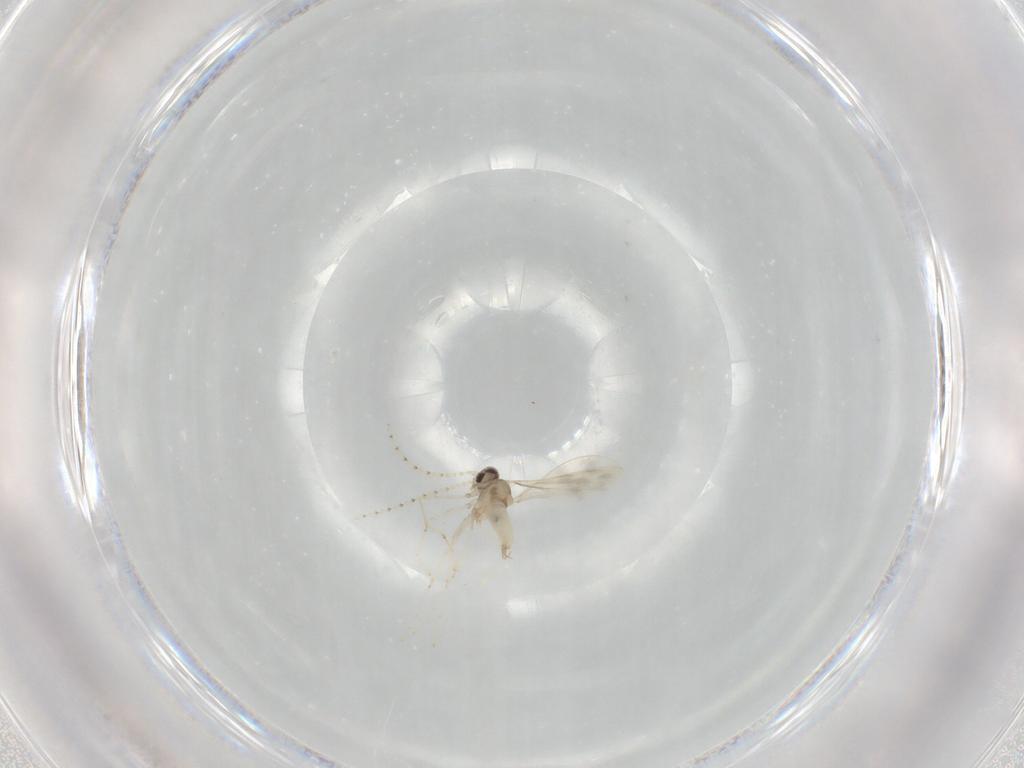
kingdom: Animalia
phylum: Arthropoda
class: Insecta
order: Diptera
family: Cecidomyiidae
